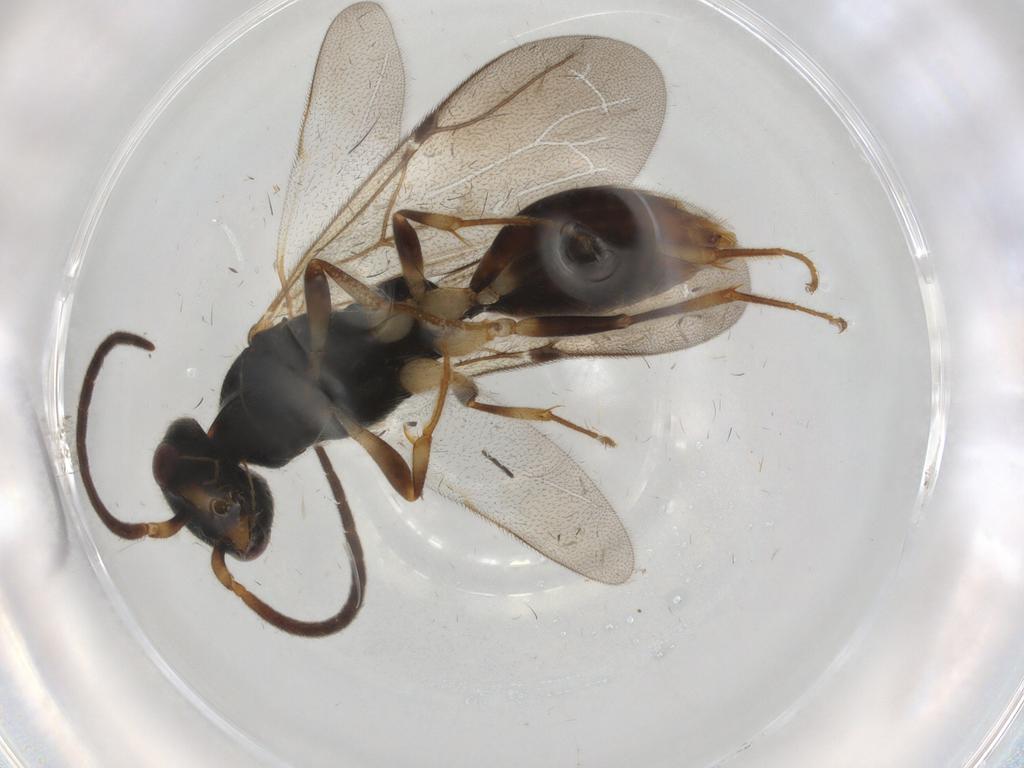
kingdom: Animalia
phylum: Arthropoda
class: Insecta
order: Hymenoptera
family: Bethylidae
